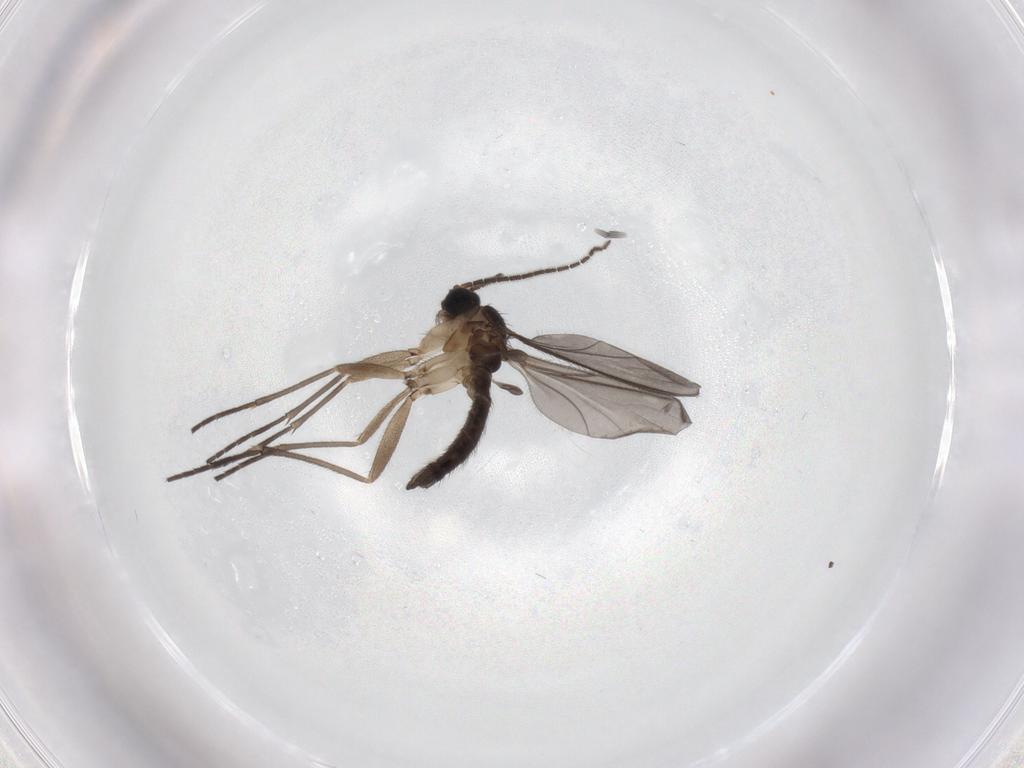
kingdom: Animalia
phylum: Arthropoda
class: Insecta
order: Diptera
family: Sciaridae
